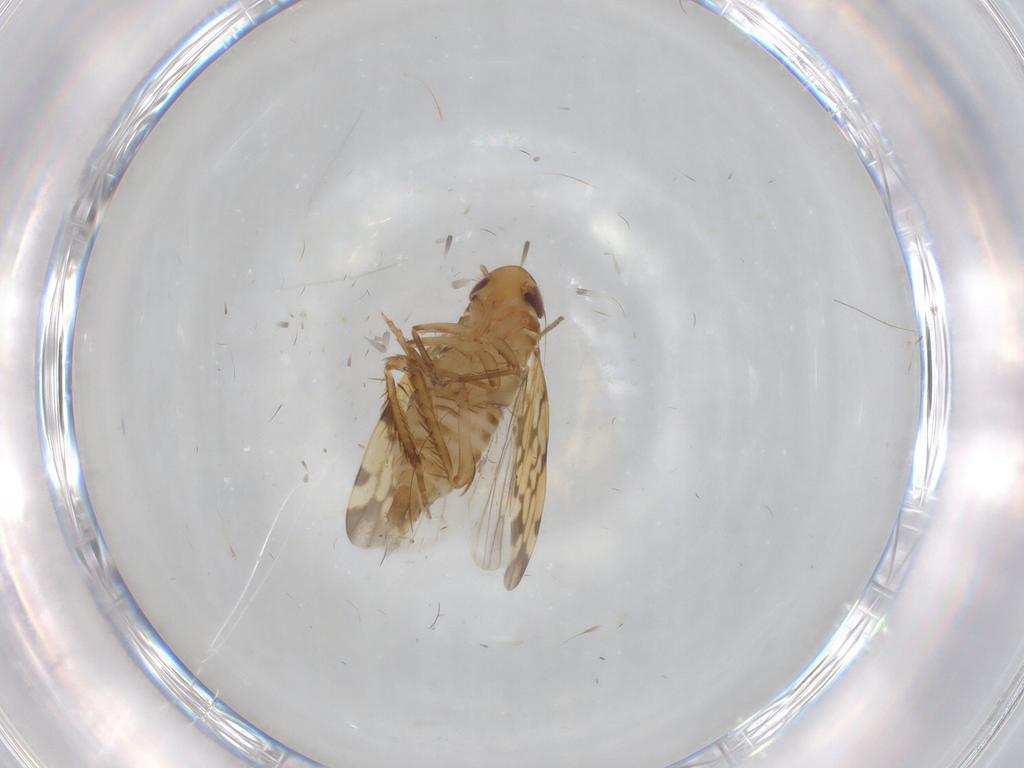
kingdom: Animalia
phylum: Arthropoda
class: Insecta
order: Hemiptera
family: Cicadellidae
